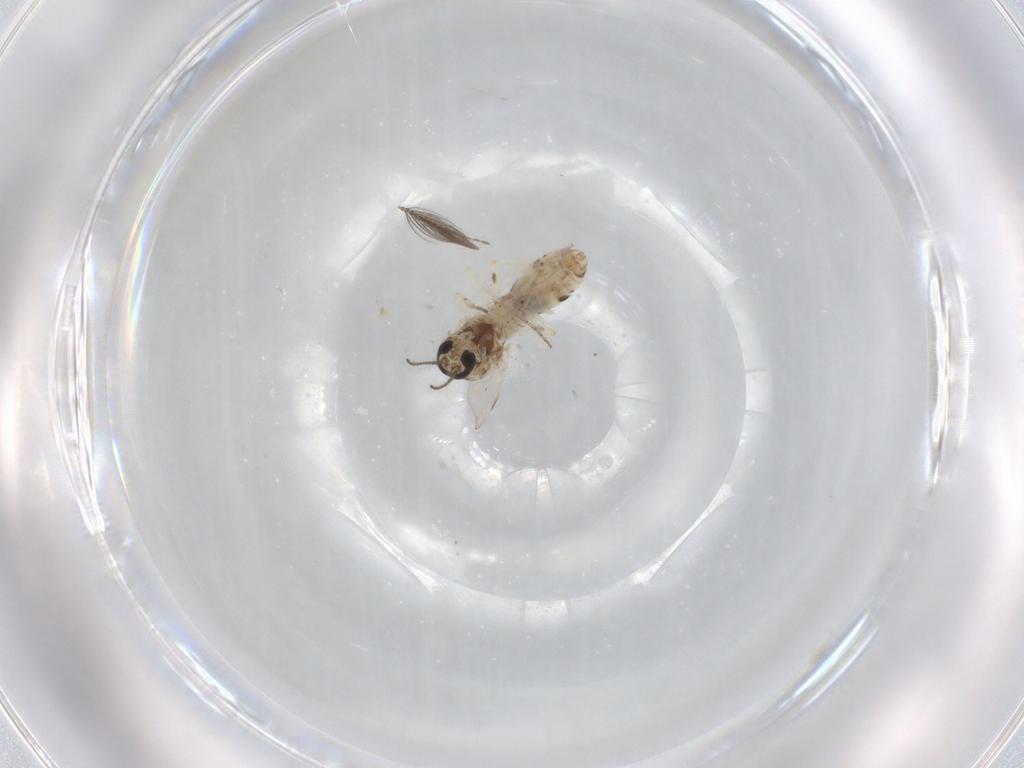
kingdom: Animalia
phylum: Arthropoda
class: Insecta
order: Diptera
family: Ceratopogonidae
